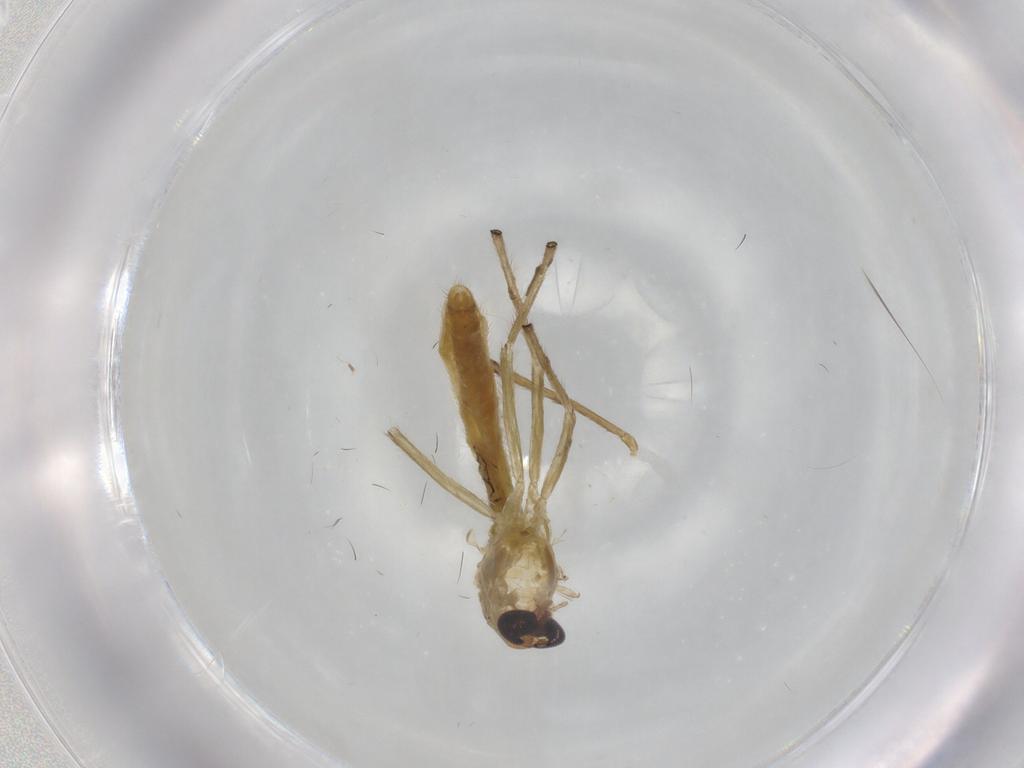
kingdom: Animalia
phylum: Arthropoda
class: Insecta
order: Diptera
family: Chironomidae
